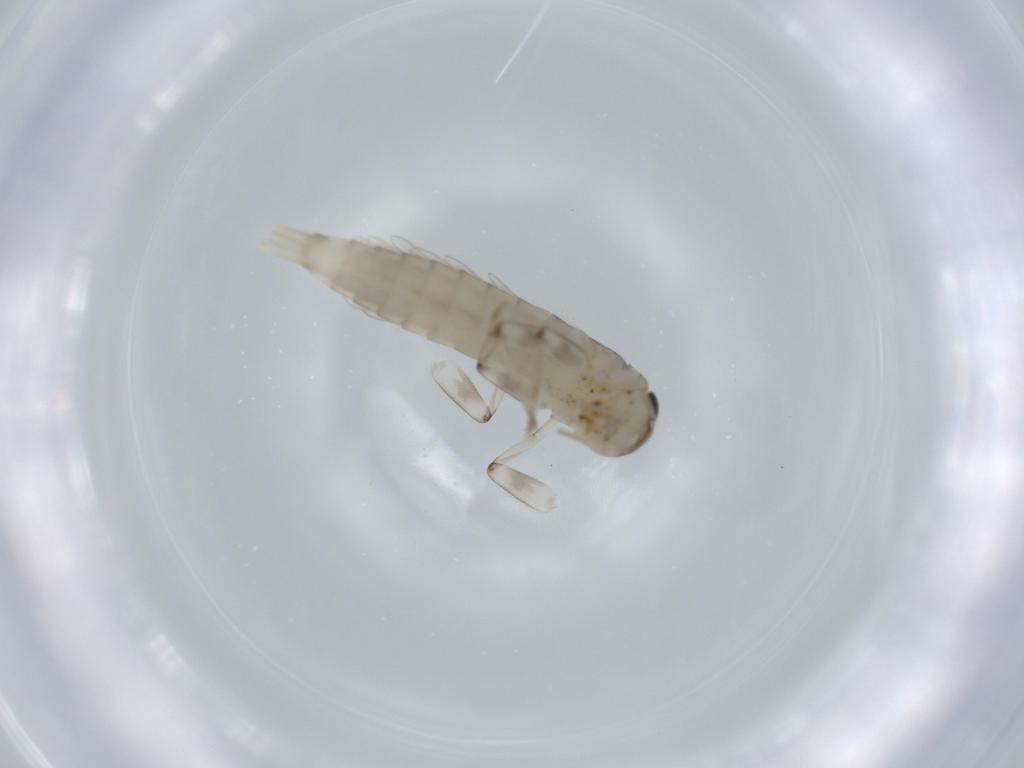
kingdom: Animalia
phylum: Arthropoda
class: Insecta
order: Ephemeroptera
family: Baetidae
